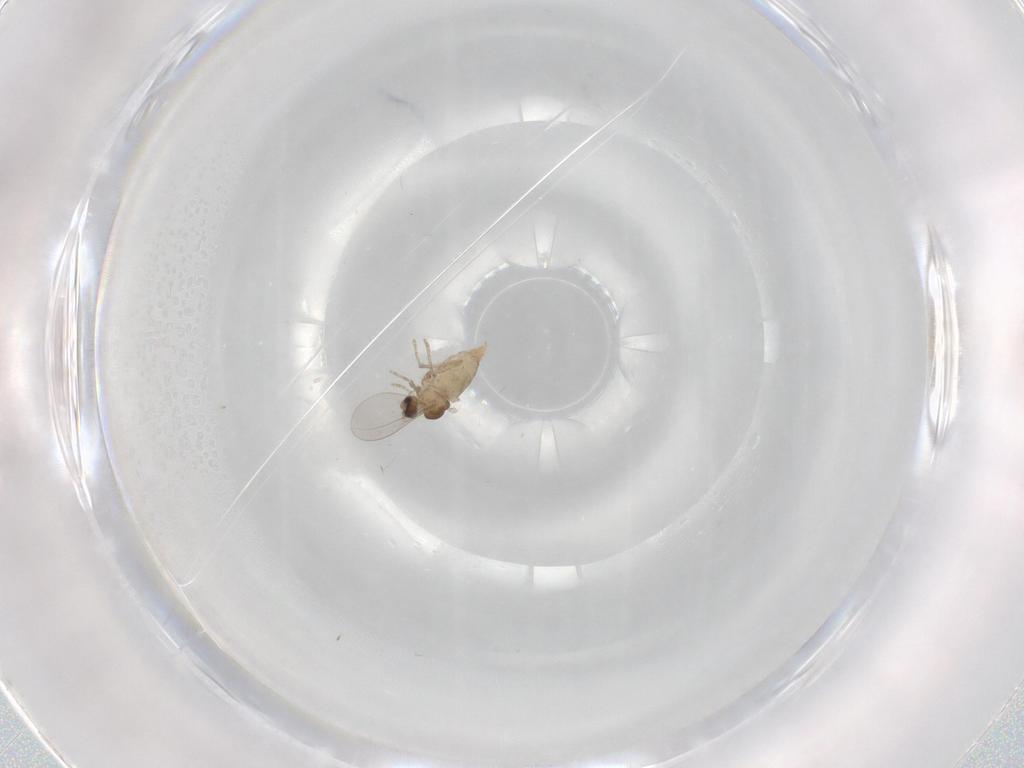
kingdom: Animalia
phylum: Arthropoda
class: Insecta
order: Diptera
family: Cecidomyiidae
